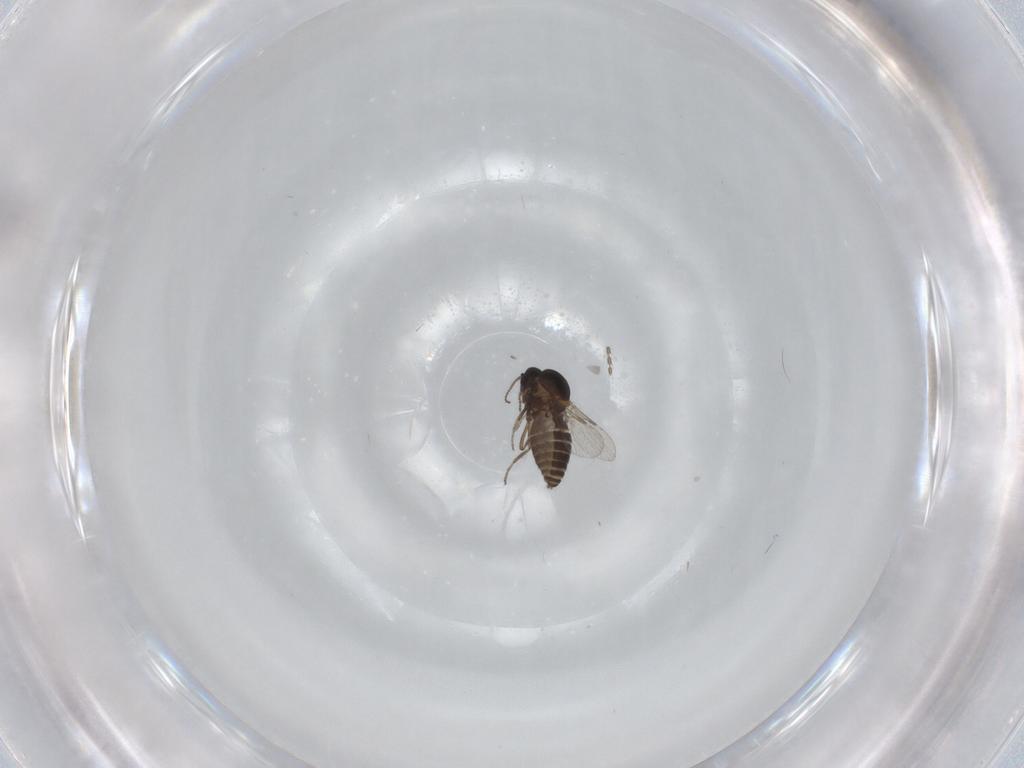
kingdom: Animalia
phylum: Arthropoda
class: Insecta
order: Diptera
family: Ceratopogonidae
